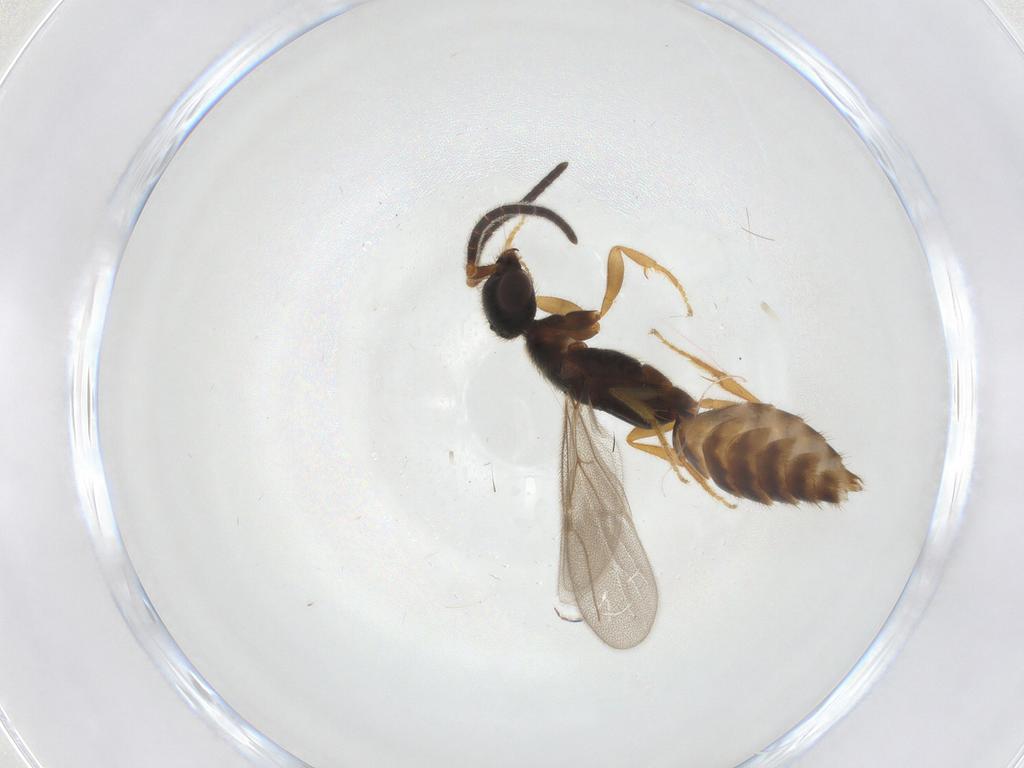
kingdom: Animalia
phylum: Arthropoda
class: Insecta
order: Hymenoptera
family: Bethylidae
